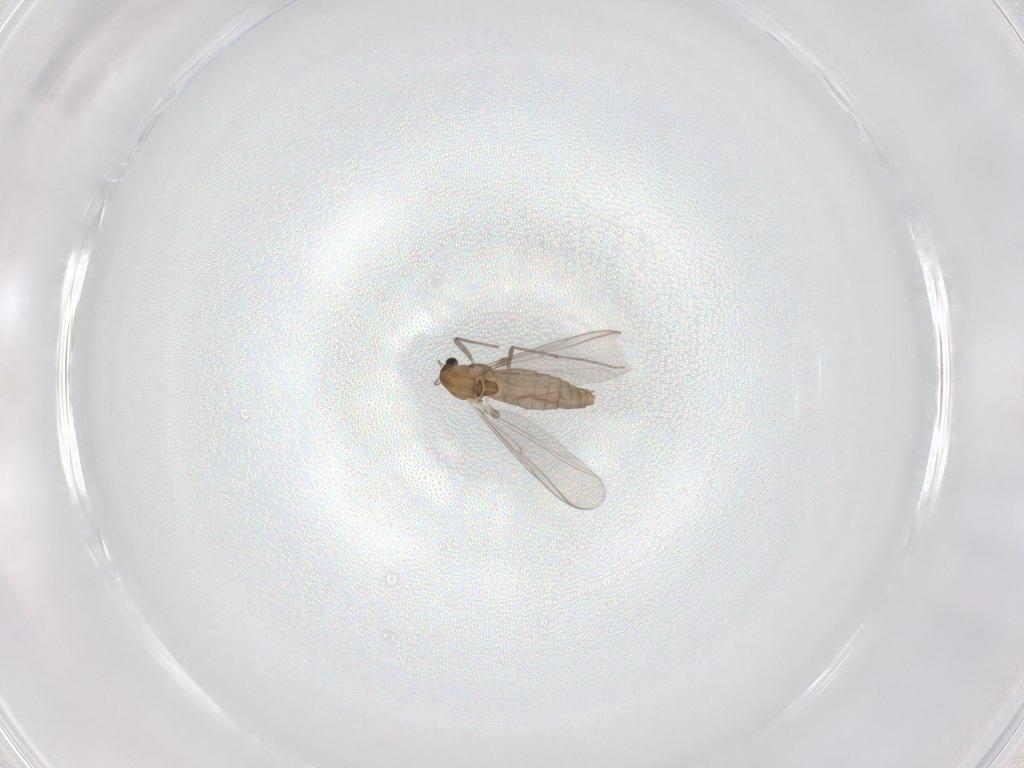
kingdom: Animalia
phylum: Arthropoda
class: Insecta
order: Diptera
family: Chironomidae
